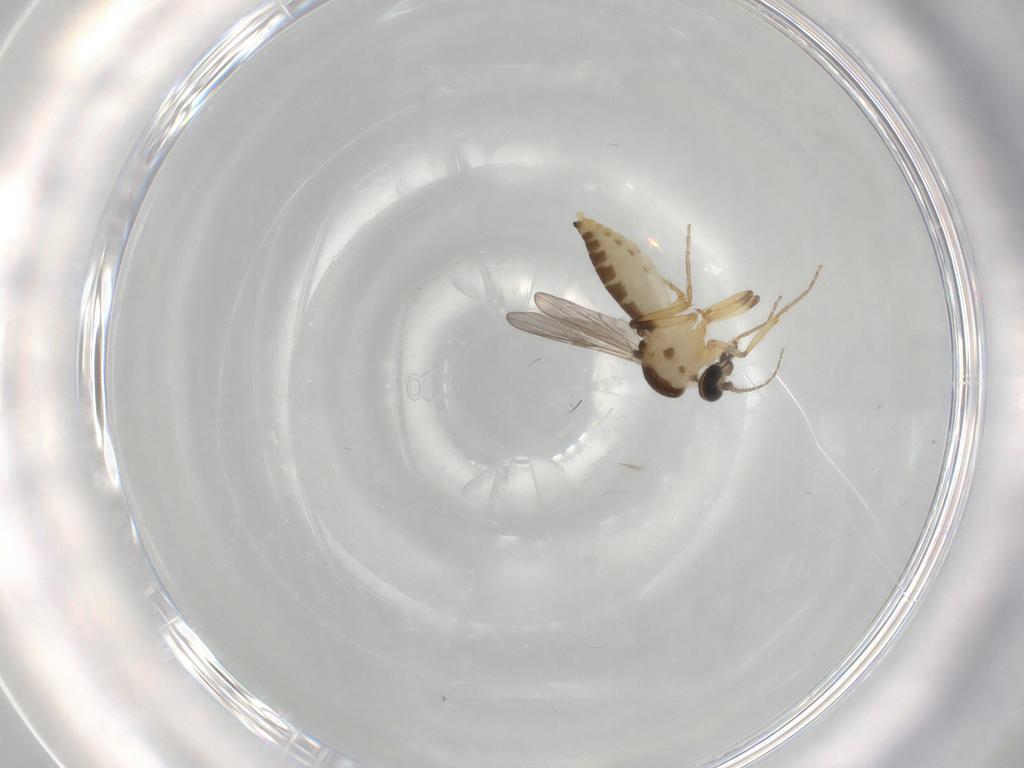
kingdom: Animalia
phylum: Arthropoda
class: Insecta
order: Diptera
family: Ceratopogonidae
